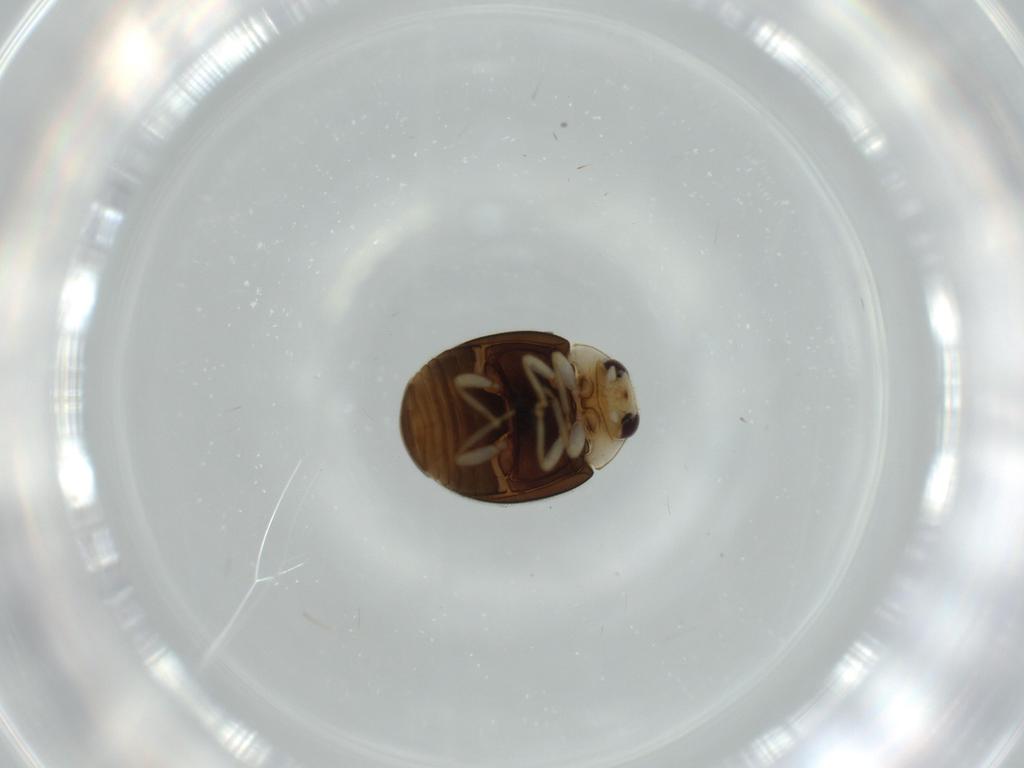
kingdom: Animalia
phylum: Arthropoda
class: Insecta
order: Coleoptera
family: Coccinellidae
